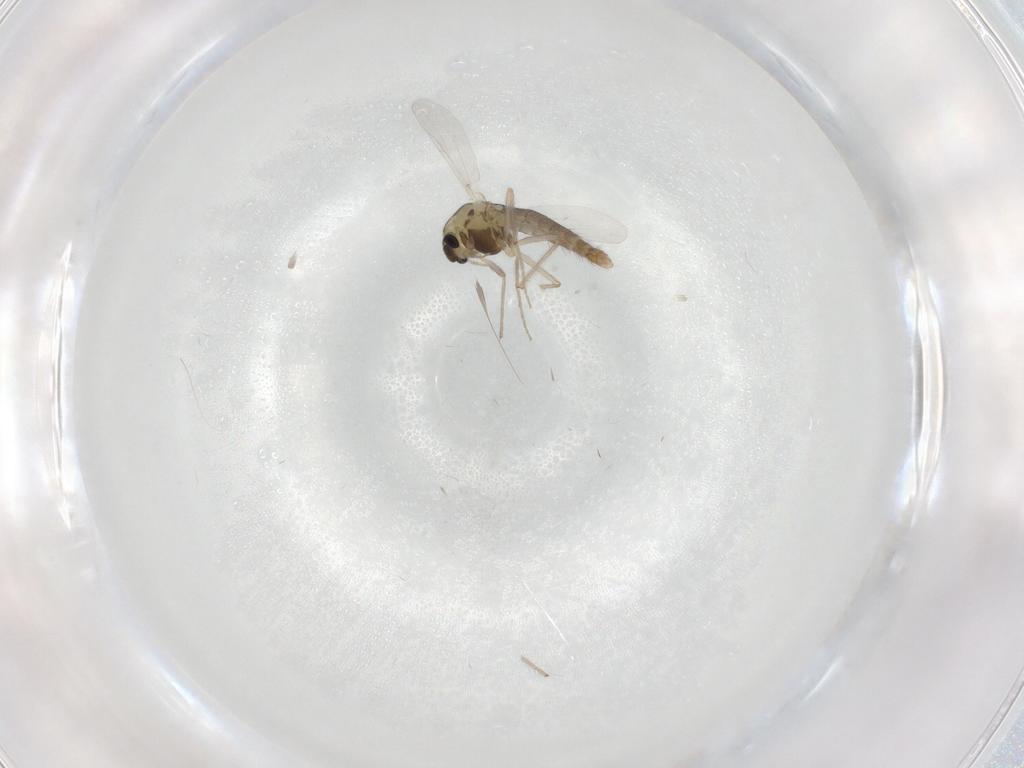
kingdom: Animalia
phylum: Arthropoda
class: Insecta
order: Diptera
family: Chironomidae
